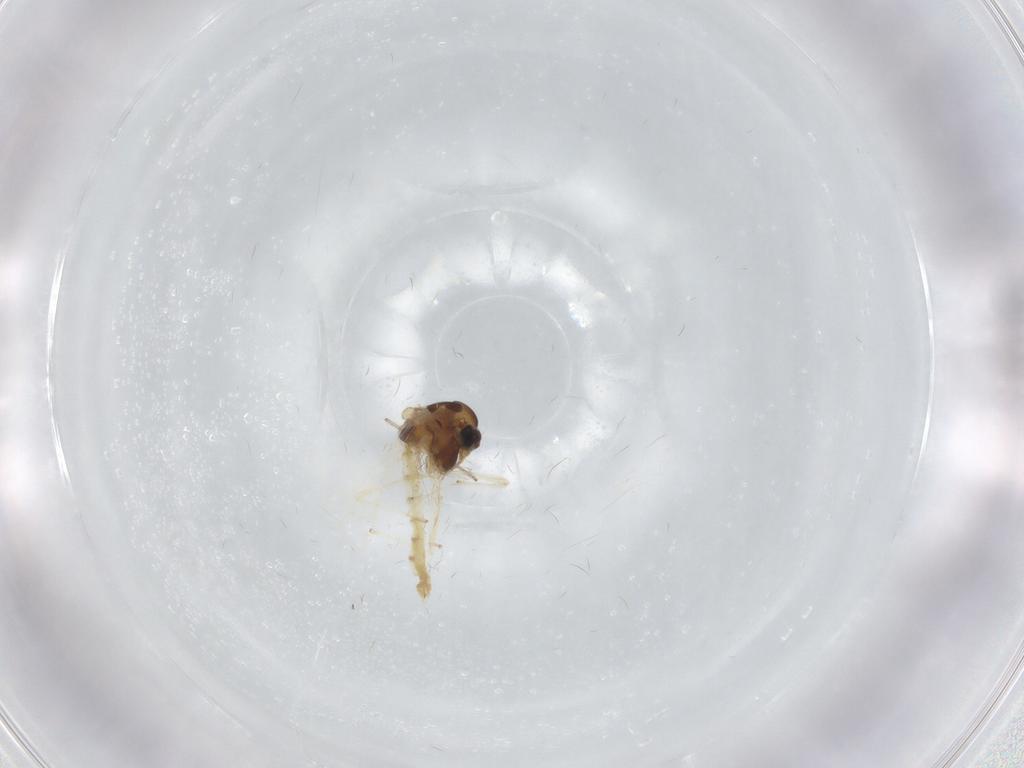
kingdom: Animalia
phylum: Arthropoda
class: Insecta
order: Diptera
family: Chironomidae
